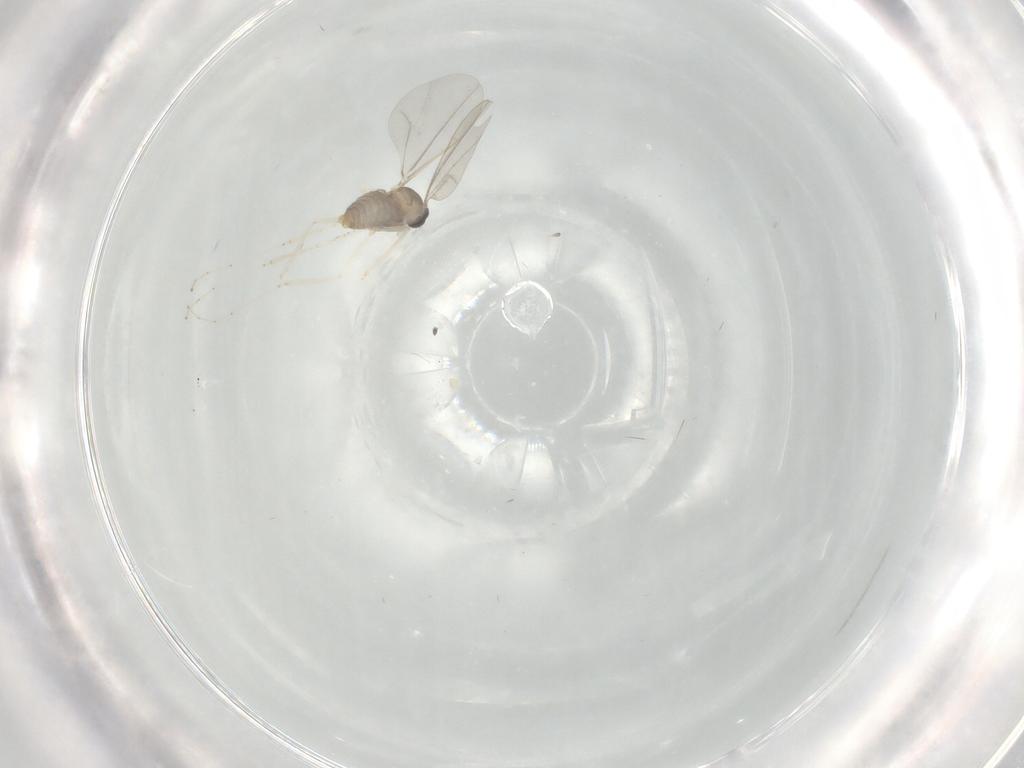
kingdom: Animalia
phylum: Arthropoda
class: Insecta
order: Diptera
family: Cecidomyiidae
